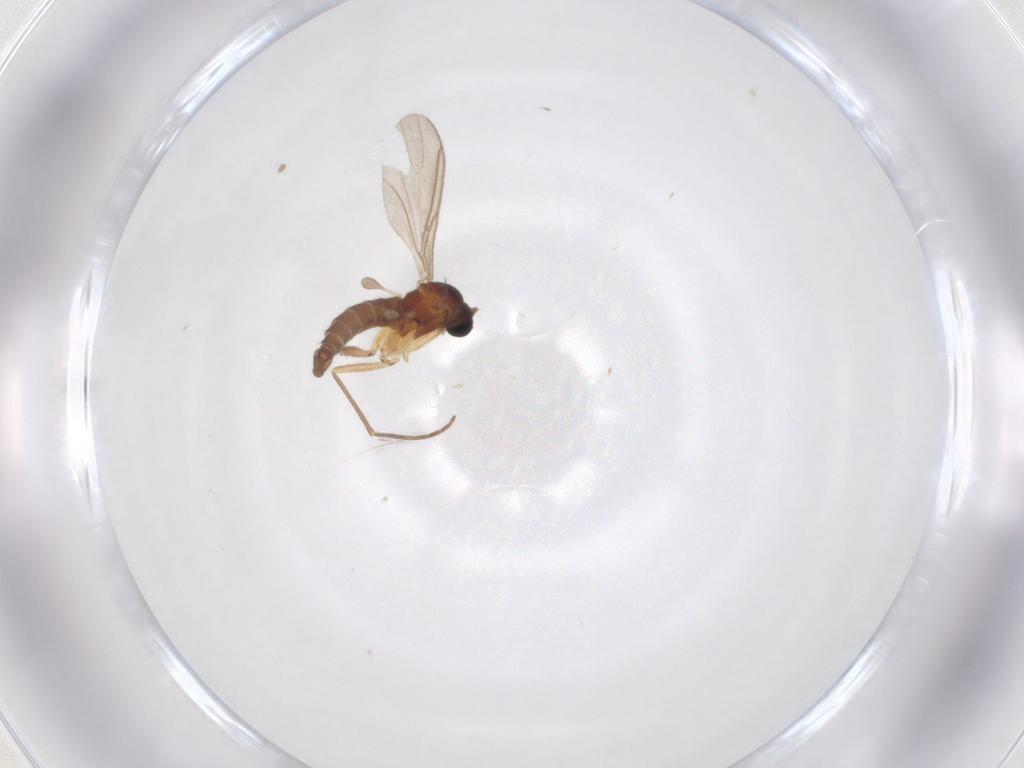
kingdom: Animalia
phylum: Arthropoda
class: Insecta
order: Diptera
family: Sciaridae
